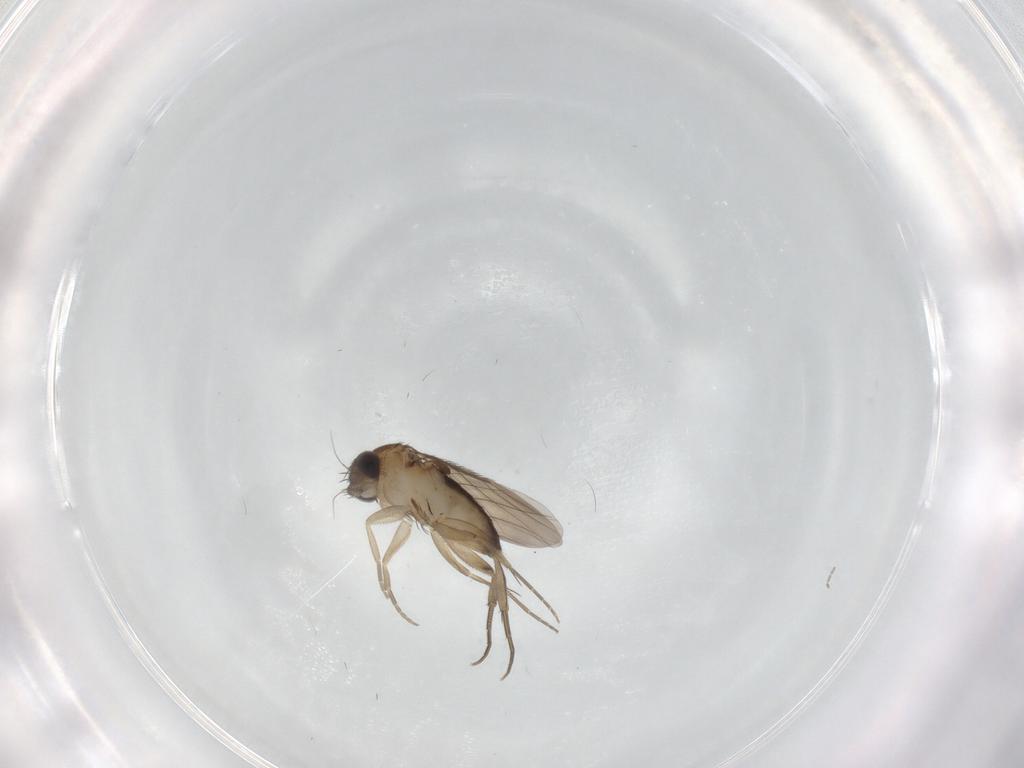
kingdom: Animalia
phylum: Arthropoda
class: Insecta
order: Diptera
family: Phoridae
